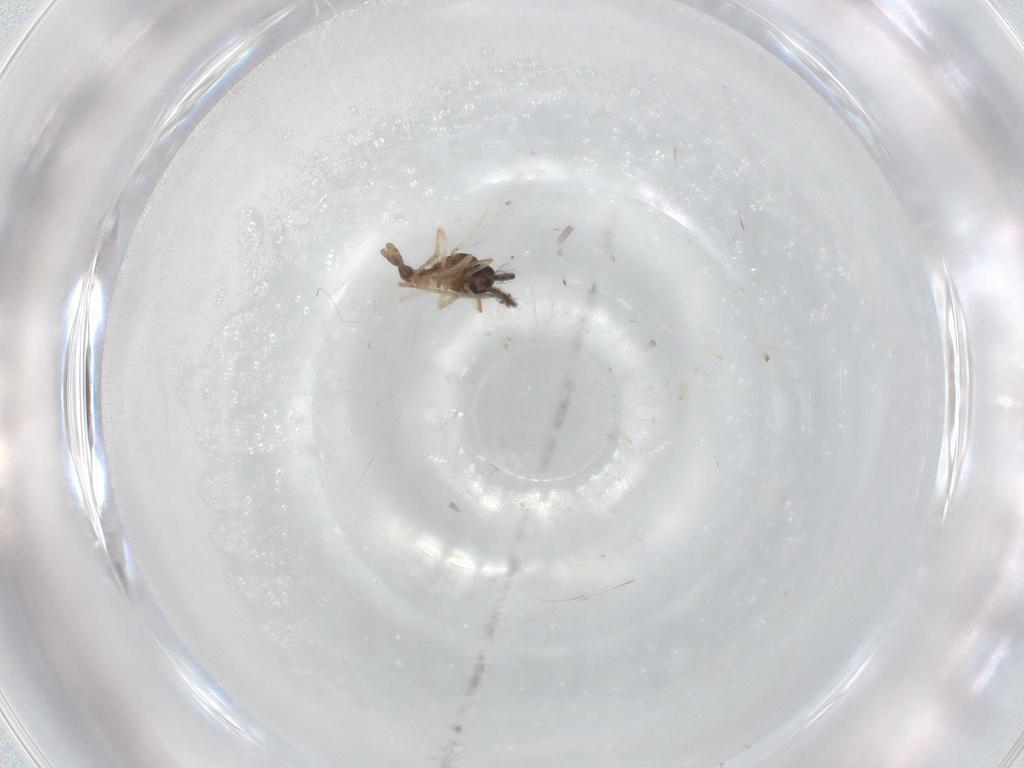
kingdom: Animalia
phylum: Arthropoda
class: Insecta
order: Diptera
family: Ceratopogonidae
